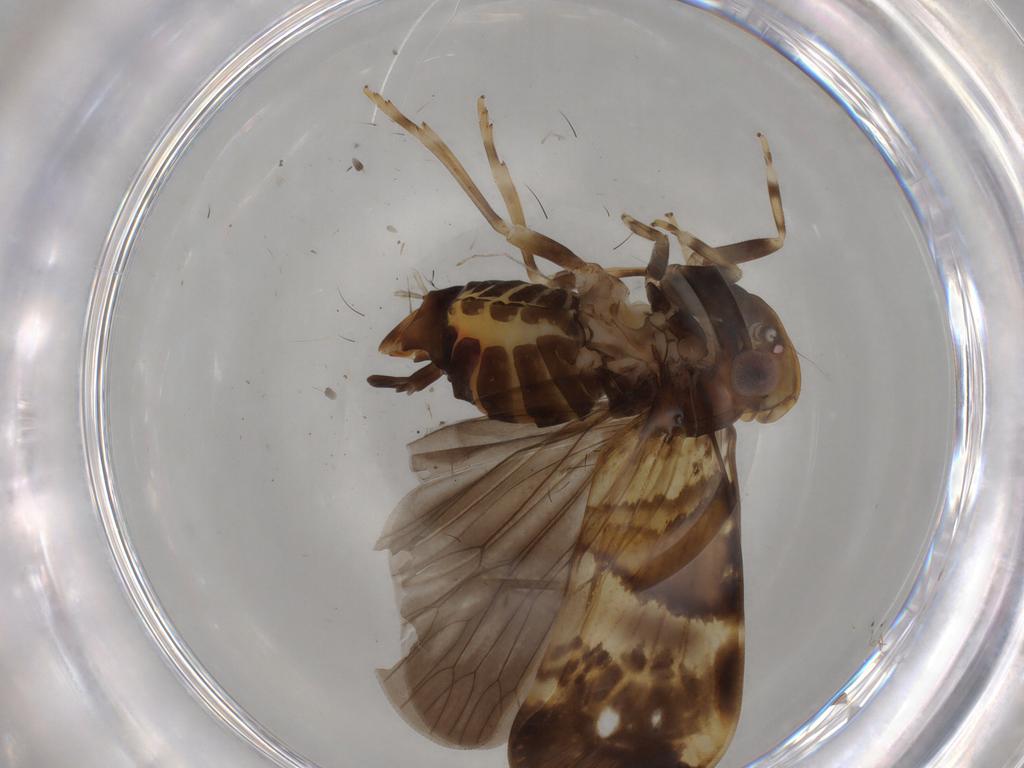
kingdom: Animalia
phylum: Arthropoda
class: Insecta
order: Hemiptera
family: Cixiidae
